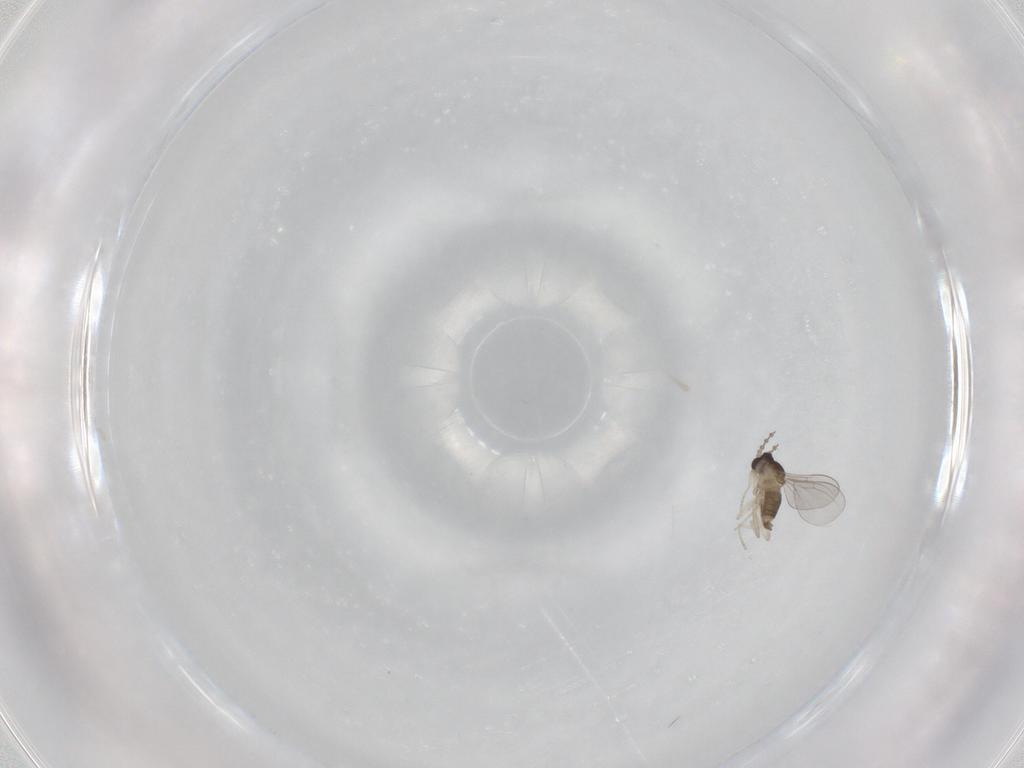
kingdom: Animalia
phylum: Arthropoda
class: Insecta
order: Diptera
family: Cecidomyiidae
